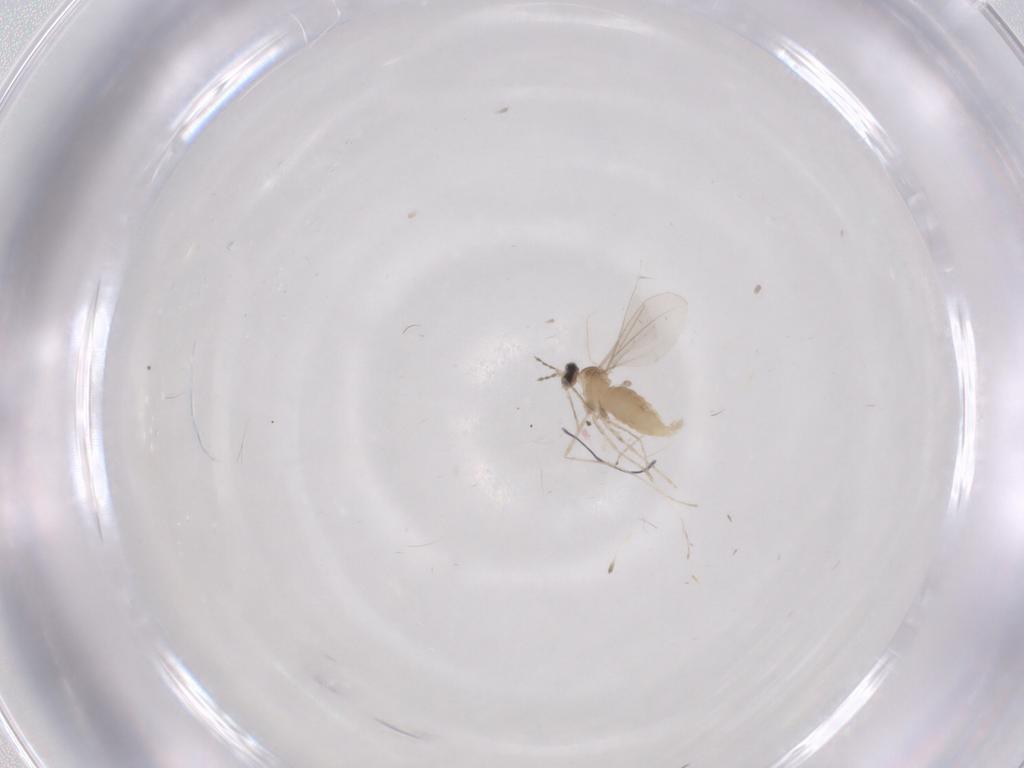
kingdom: Animalia
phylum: Arthropoda
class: Insecta
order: Diptera
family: Cecidomyiidae
